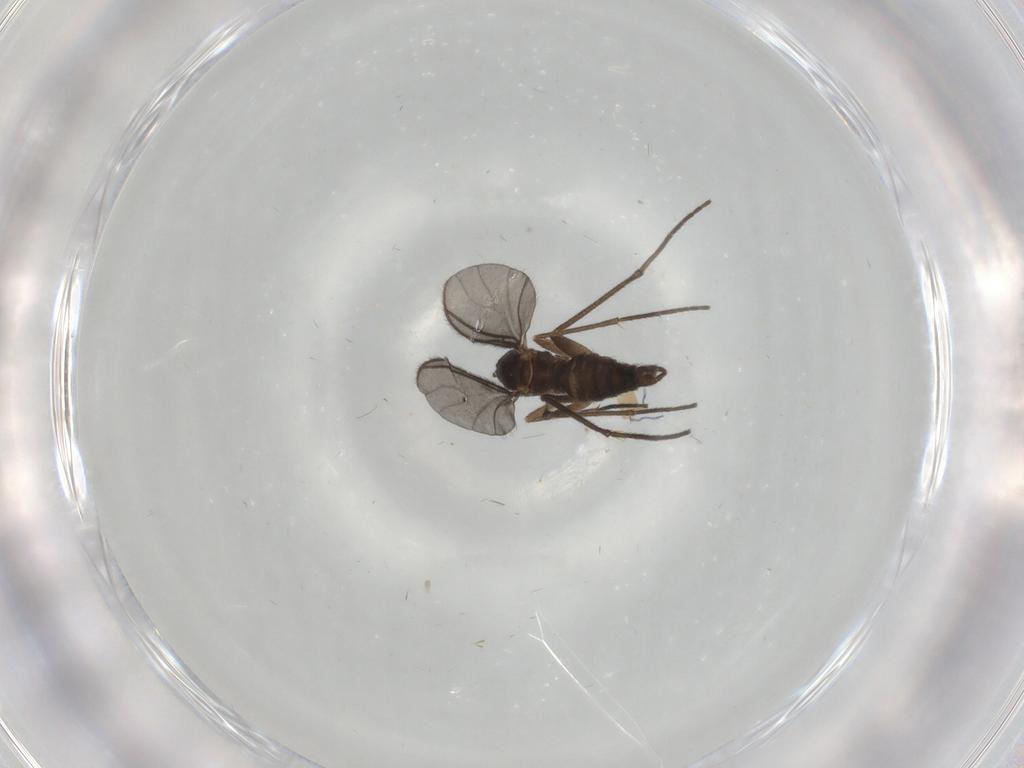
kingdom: Animalia
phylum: Arthropoda
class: Insecta
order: Diptera
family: Sciaridae
